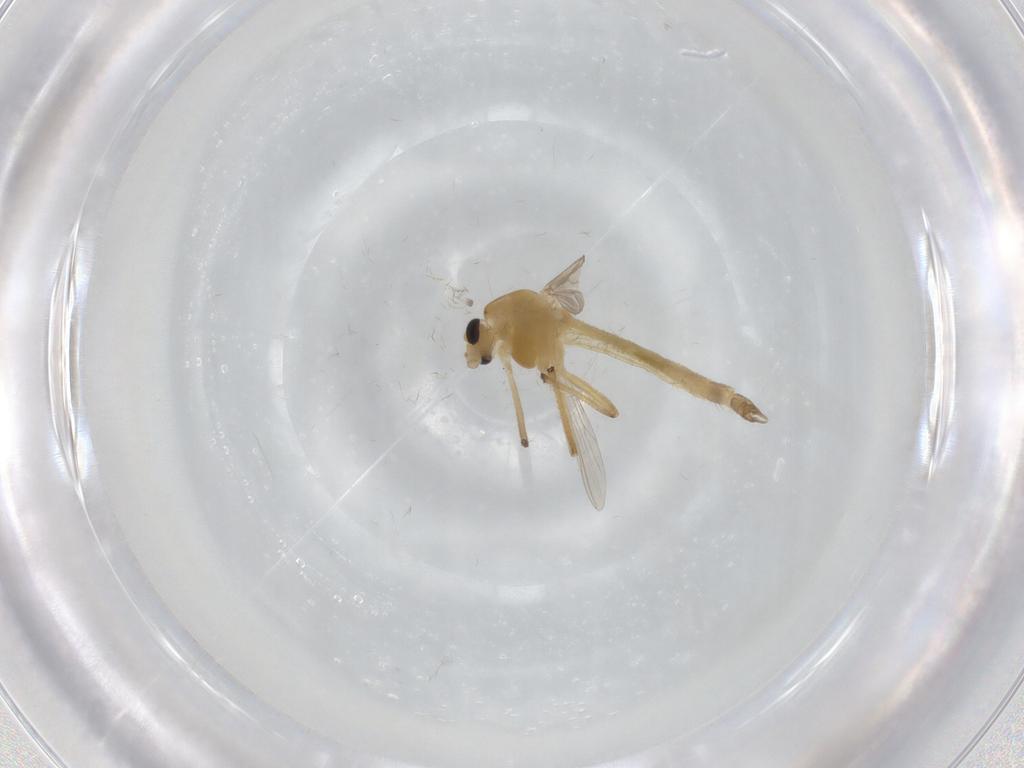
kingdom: Animalia
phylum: Arthropoda
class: Insecta
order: Diptera
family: Chironomidae
